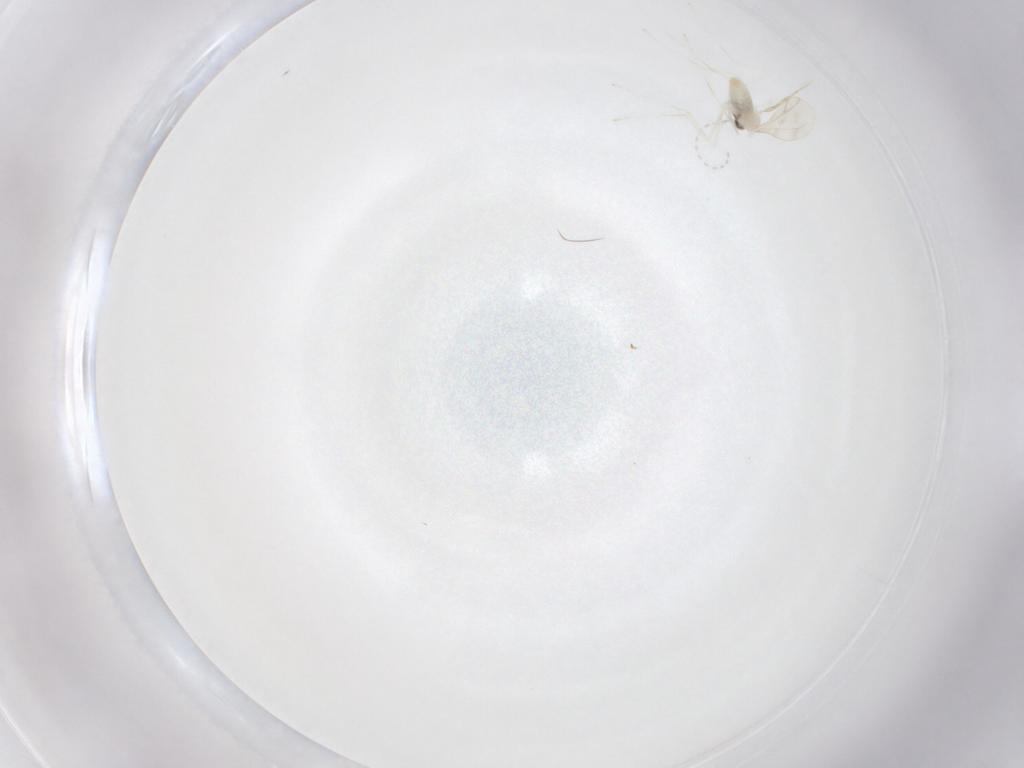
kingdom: Animalia
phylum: Arthropoda
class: Insecta
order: Diptera
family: Cecidomyiidae
